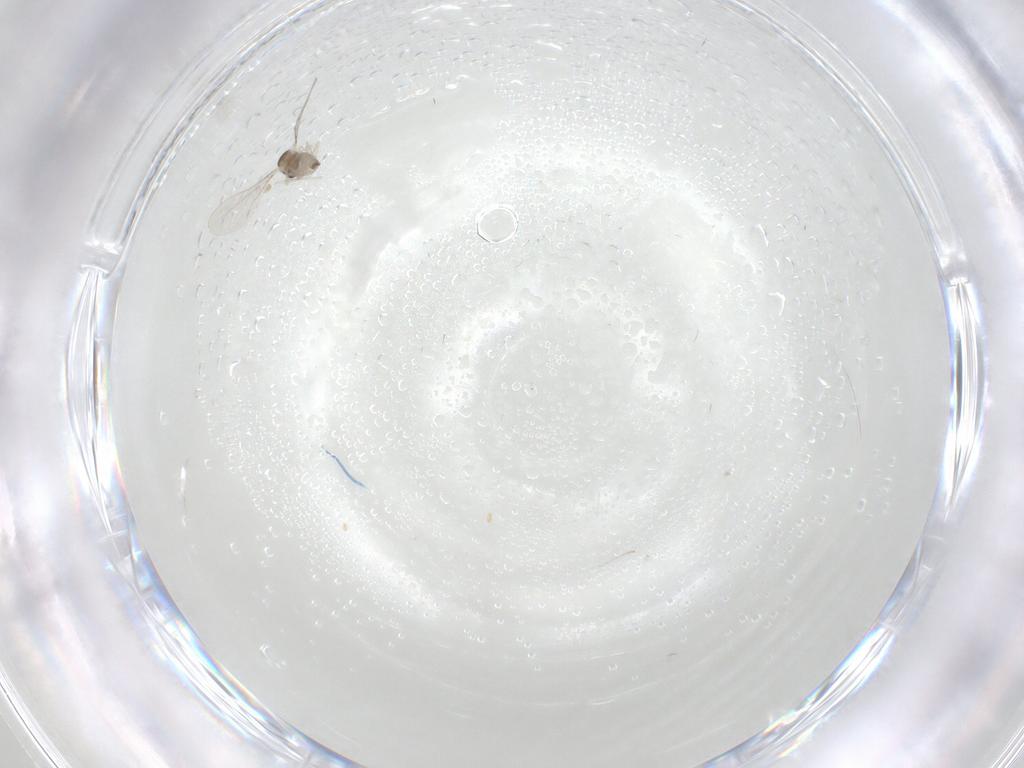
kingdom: Animalia
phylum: Arthropoda
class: Insecta
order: Diptera
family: Cecidomyiidae
